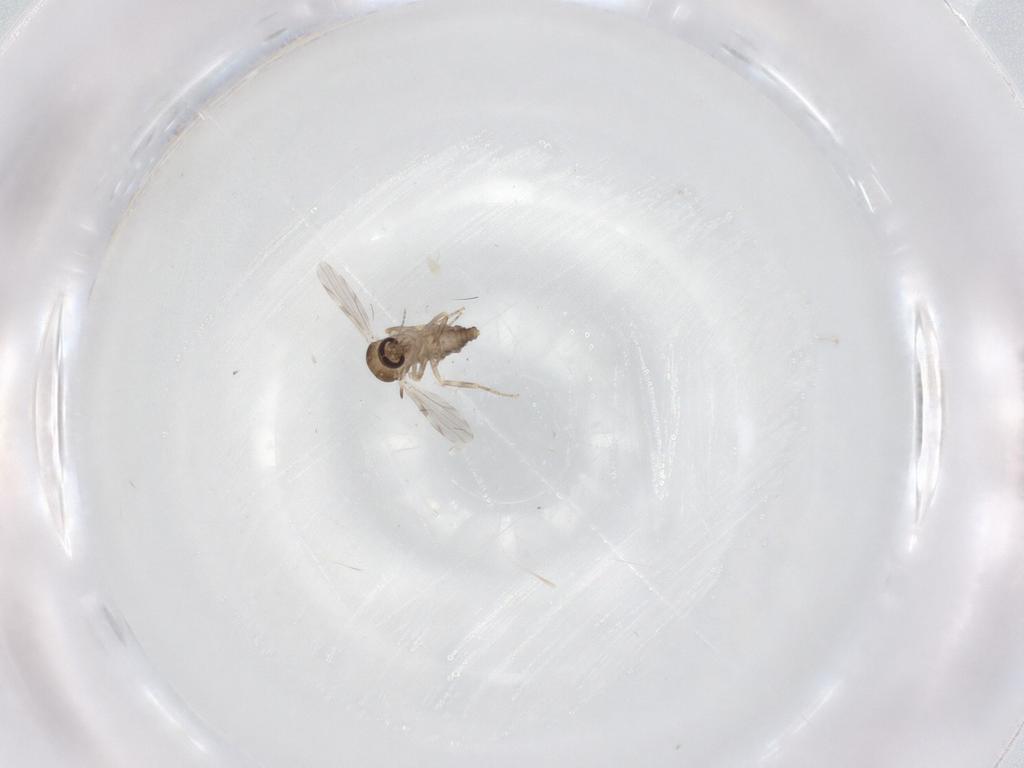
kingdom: Animalia
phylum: Arthropoda
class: Insecta
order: Diptera
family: Ceratopogonidae
